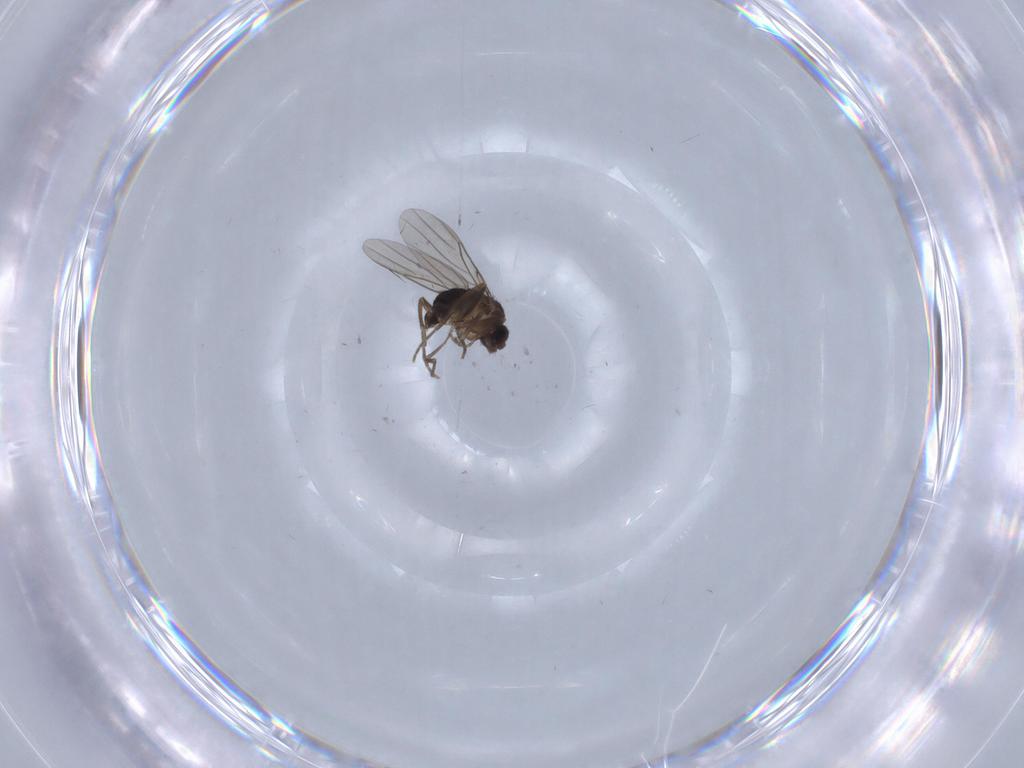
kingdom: Animalia
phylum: Arthropoda
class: Insecta
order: Diptera
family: Phoridae
